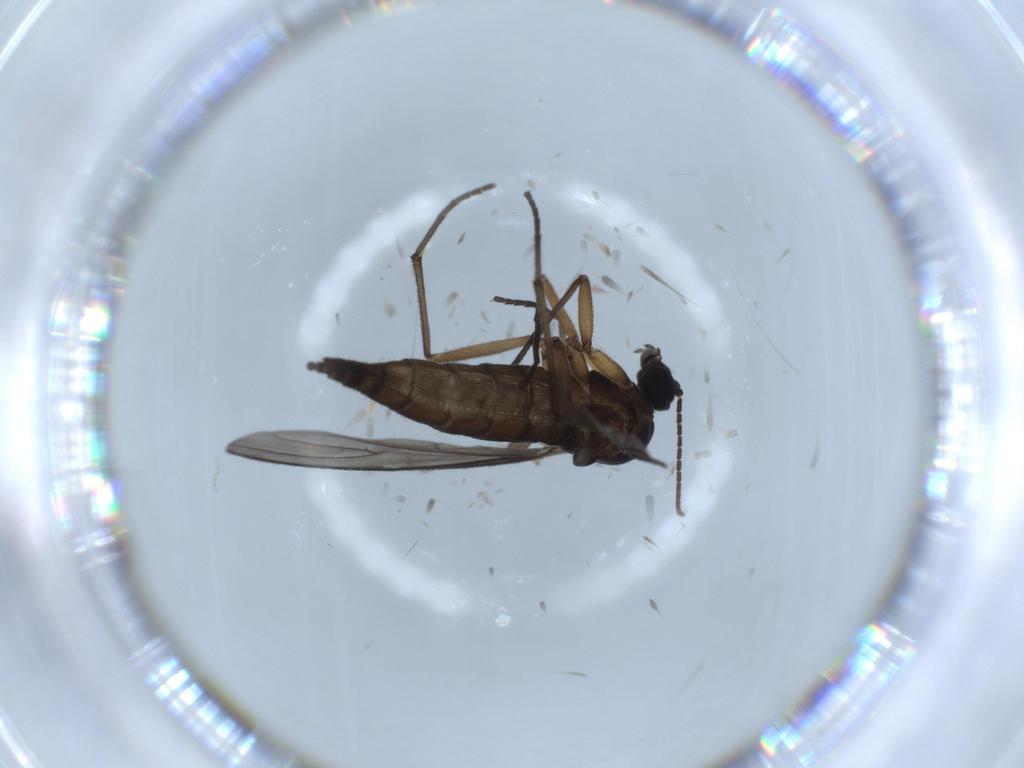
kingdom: Animalia
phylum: Arthropoda
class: Insecta
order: Diptera
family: Sciaridae
